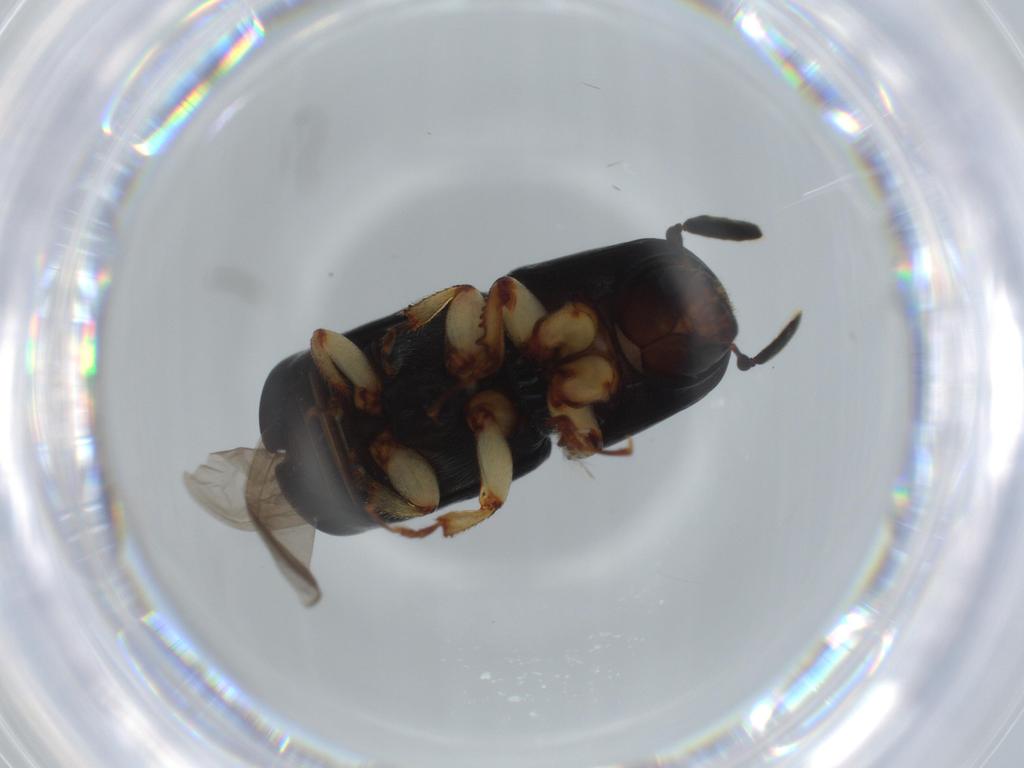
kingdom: Animalia
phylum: Arthropoda
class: Insecta
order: Coleoptera
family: Curculionidae
